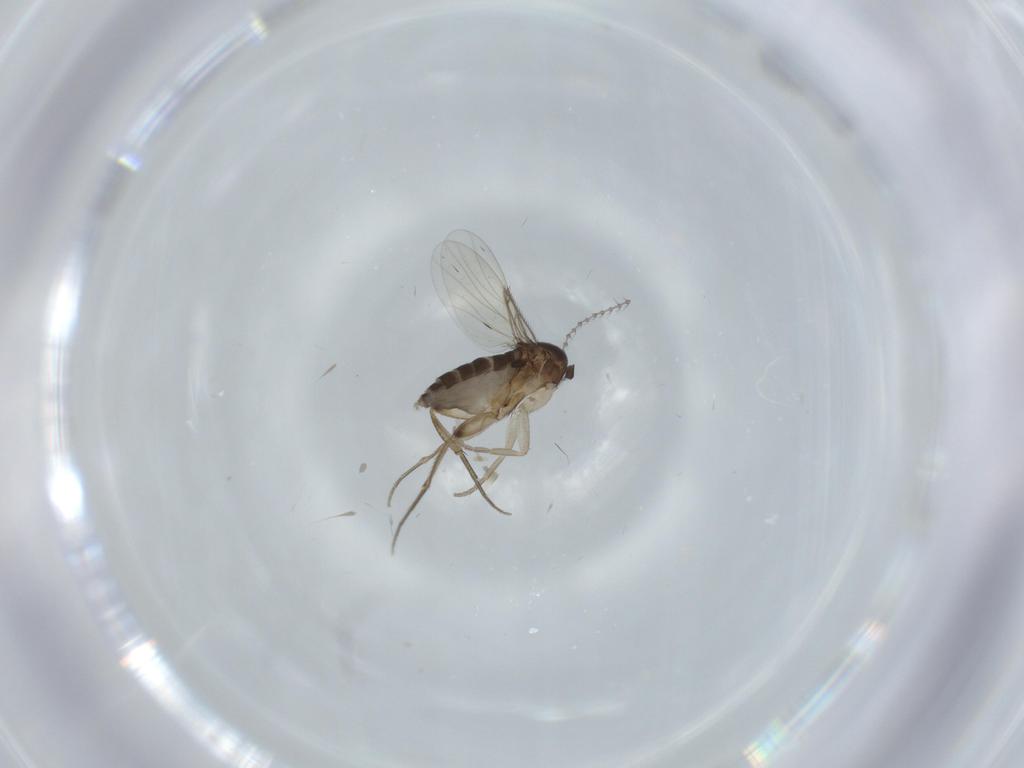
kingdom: Animalia
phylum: Arthropoda
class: Insecta
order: Diptera
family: Phoridae
